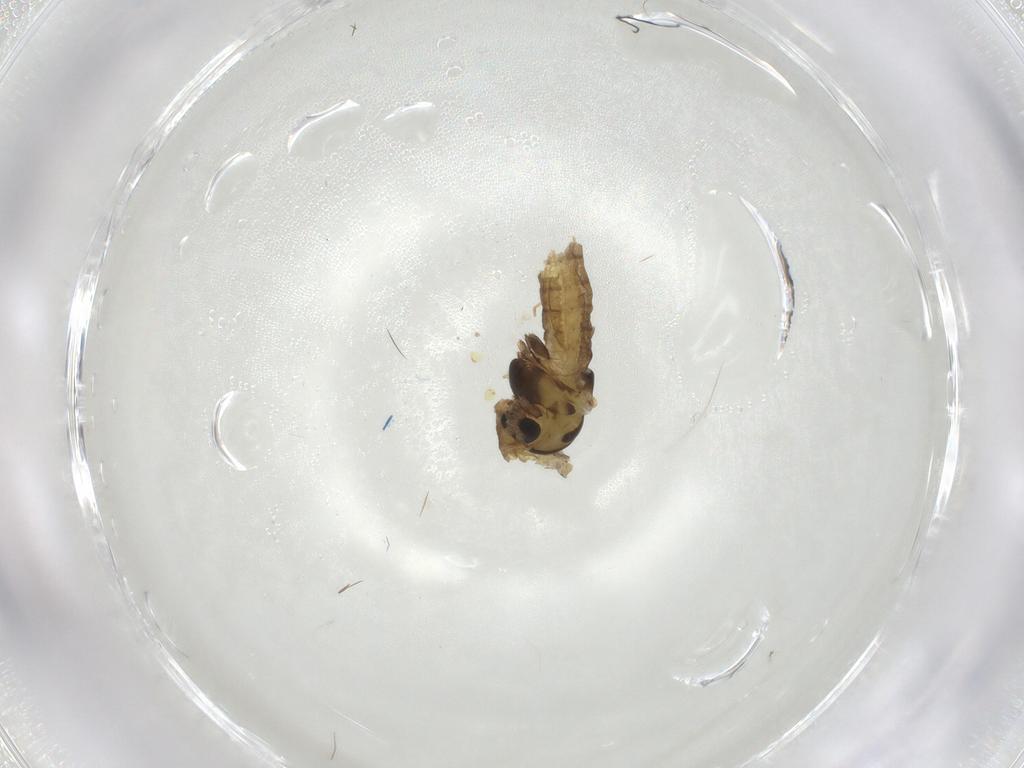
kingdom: Animalia
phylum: Arthropoda
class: Insecta
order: Diptera
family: Chironomidae
